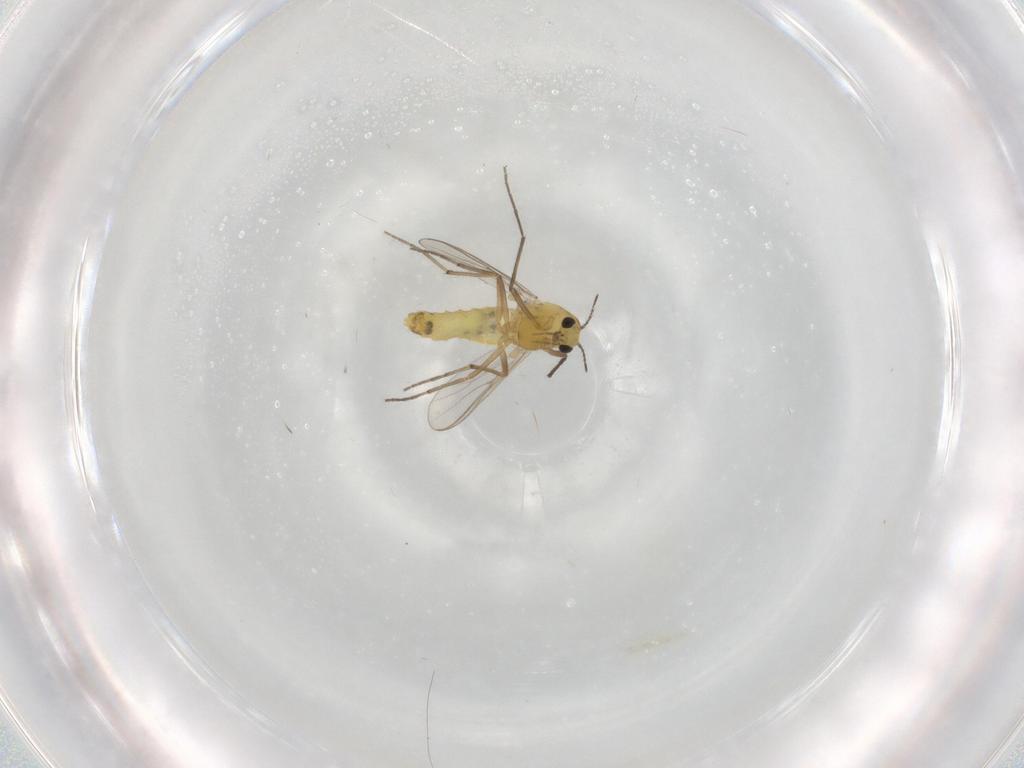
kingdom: Animalia
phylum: Arthropoda
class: Insecta
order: Diptera
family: Chironomidae
